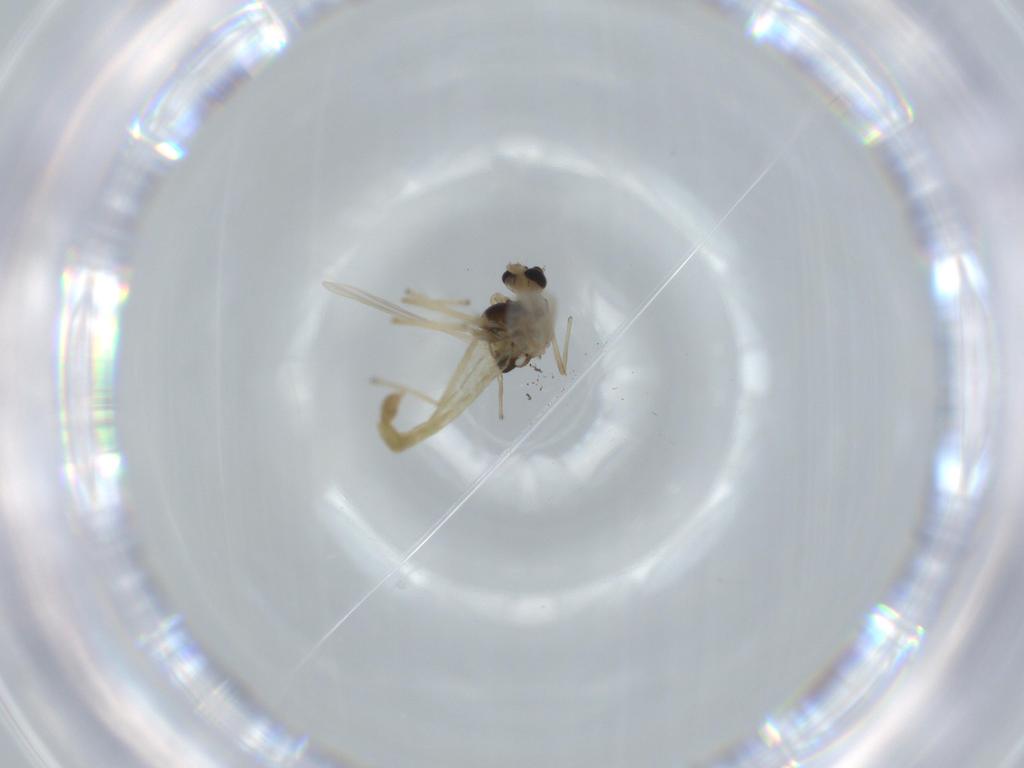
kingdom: Animalia
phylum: Arthropoda
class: Insecta
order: Diptera
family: Chironomidae
